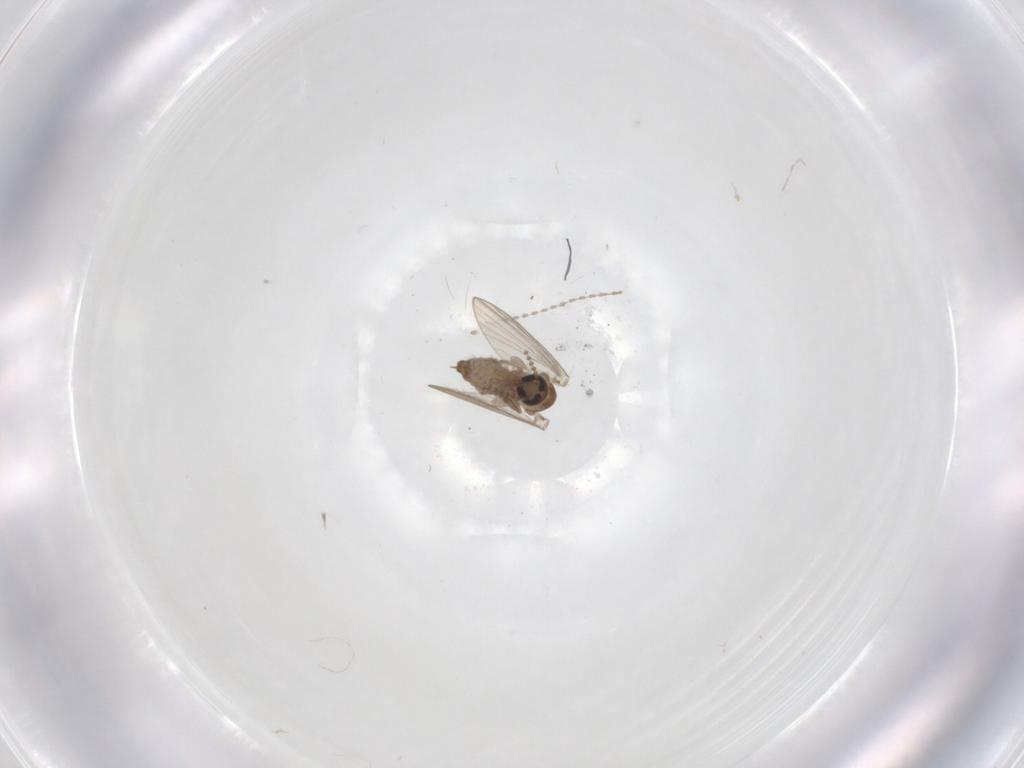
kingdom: Animalia
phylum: Arthropoda
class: Insecta
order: Diptera
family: Psychodidae
